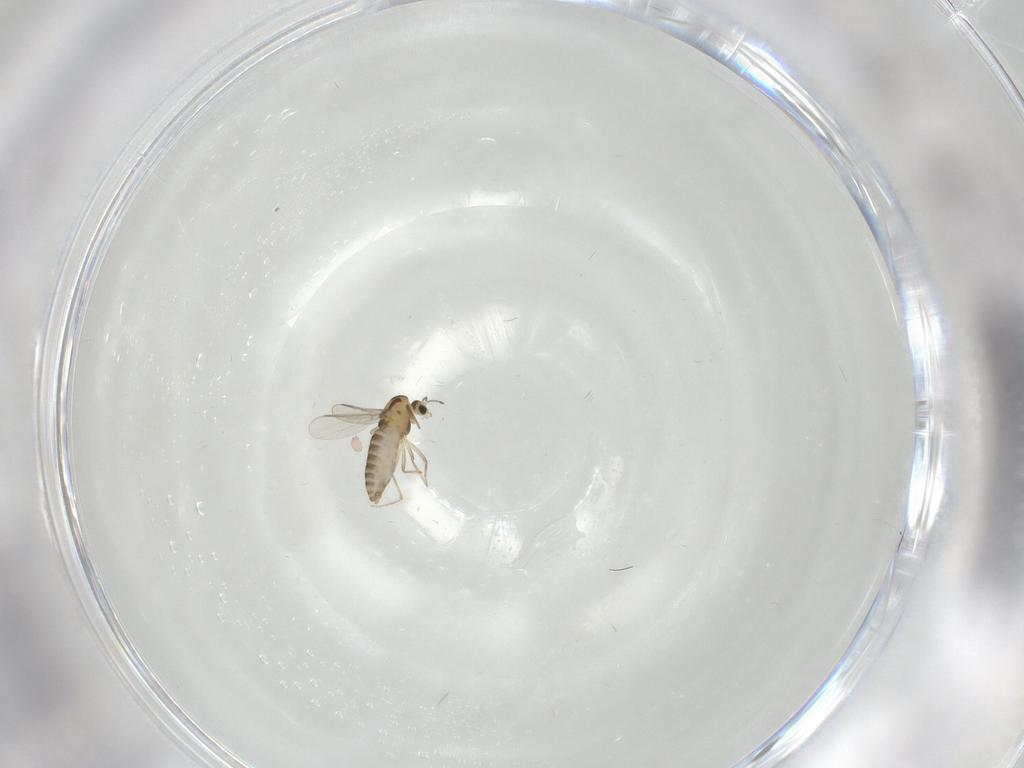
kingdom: Animalia
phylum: Arthropoda
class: Insecta
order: Diptera
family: Chironomidae
